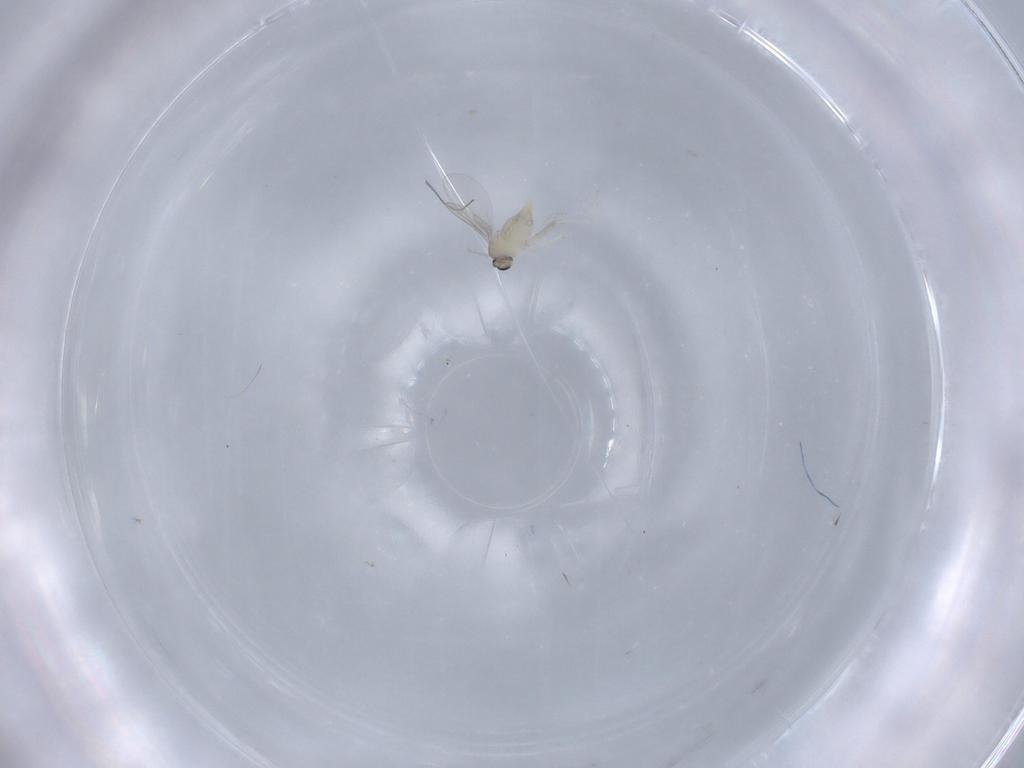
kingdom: Animalia
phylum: Arthropoda
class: Insecta
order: Diptera
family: Cecidomyiidae
